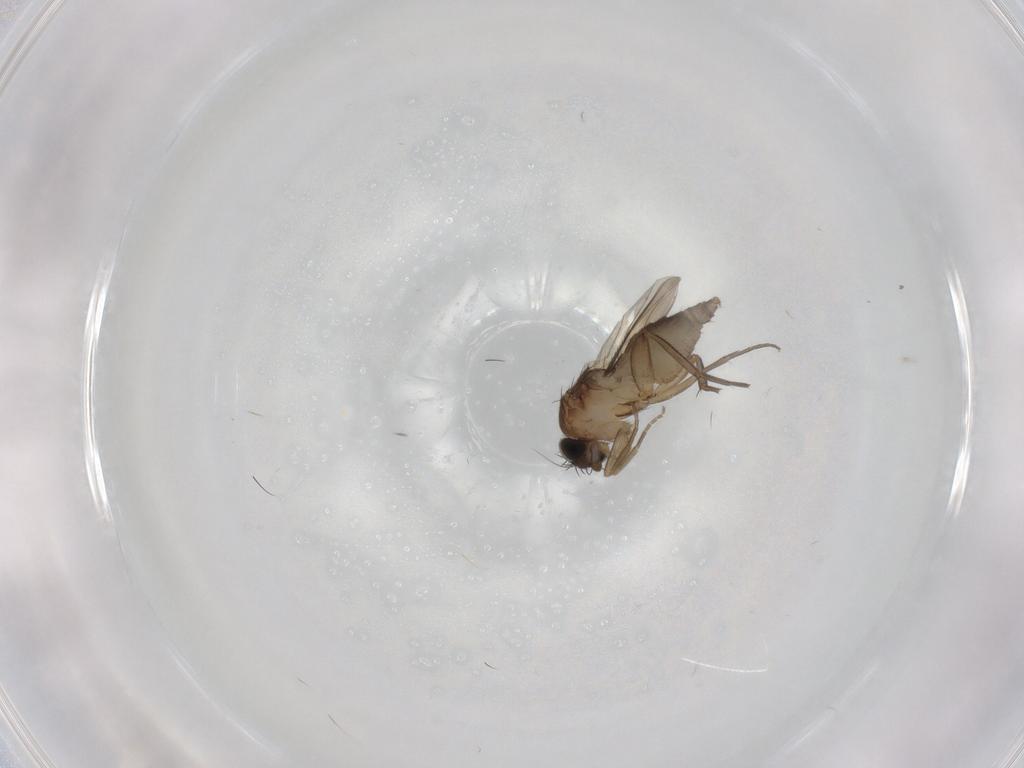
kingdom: Animalia
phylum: Arthropoda
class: Insecta
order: Diptera
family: Phoridae
